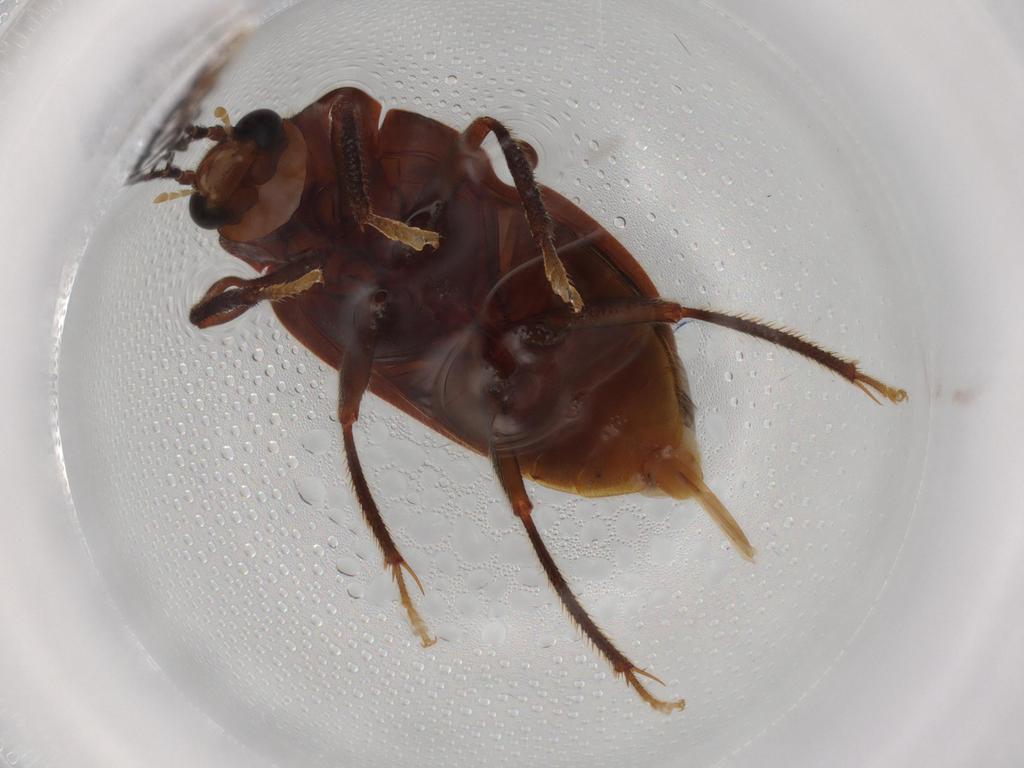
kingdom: Animalia
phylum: Arthropoda
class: Insecta
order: Coleoptera
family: Ptilodactylidae
